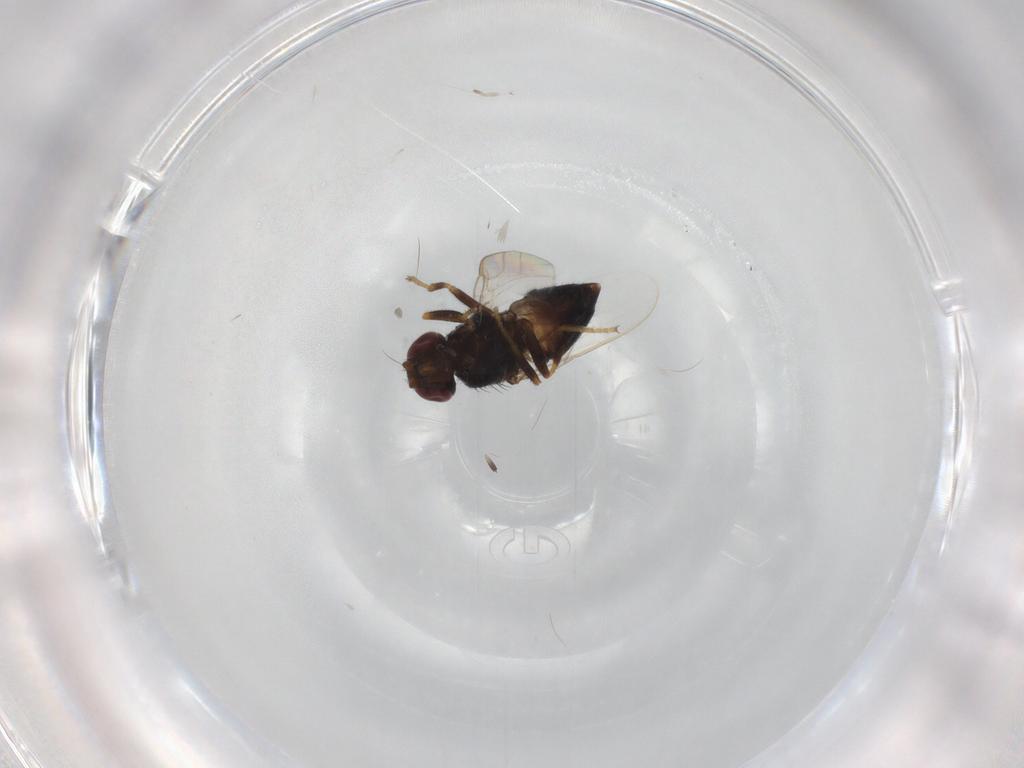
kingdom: Animalia
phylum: Arthropoda
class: Insecta
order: Diptera
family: Chloropidae
